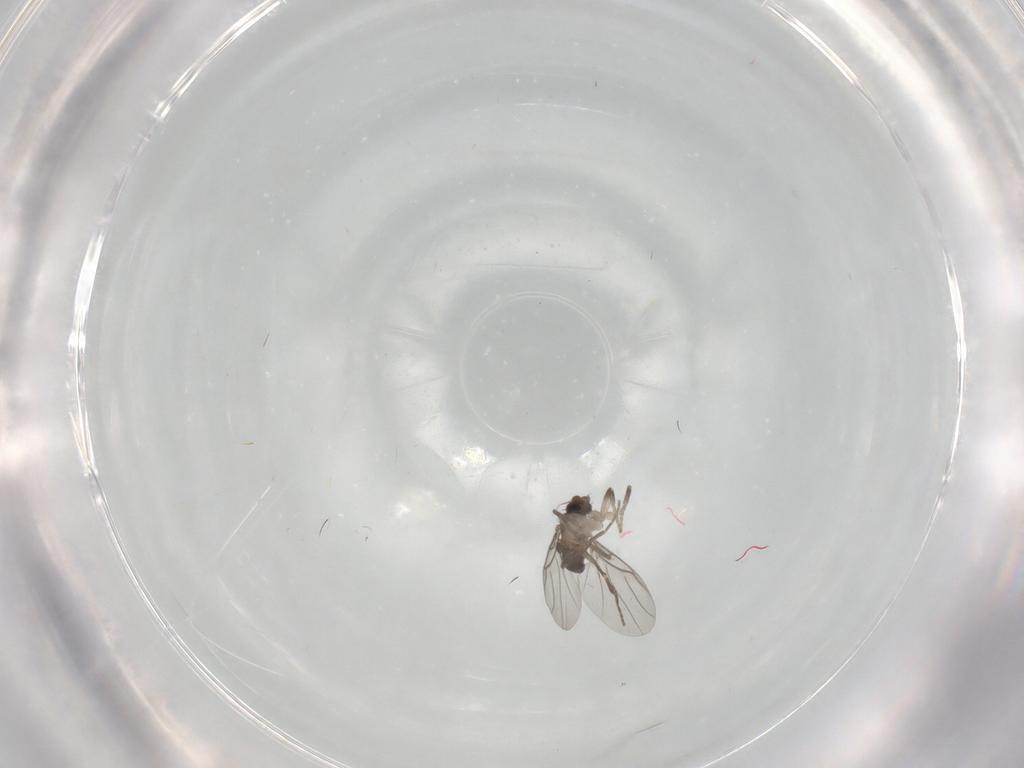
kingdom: Animalia
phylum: Arthropoda
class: Insecta
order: Diptera
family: Phoridae
